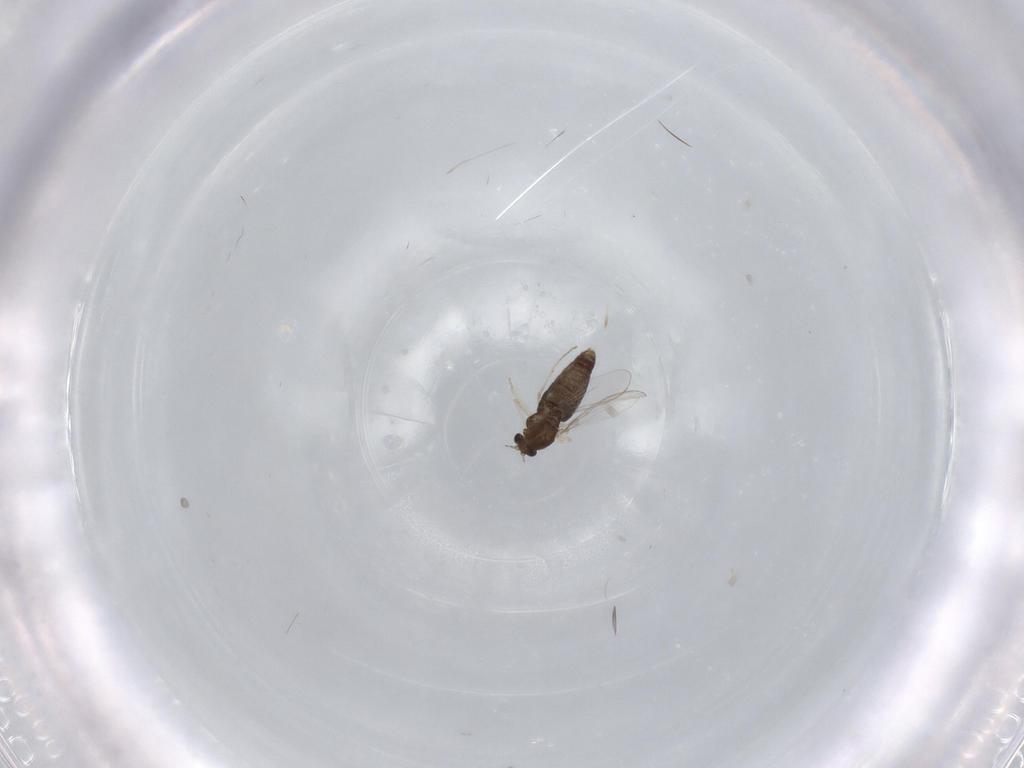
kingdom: Animalia
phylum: Arthropoda
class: Insecta
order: Diptera
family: Chironomidae
